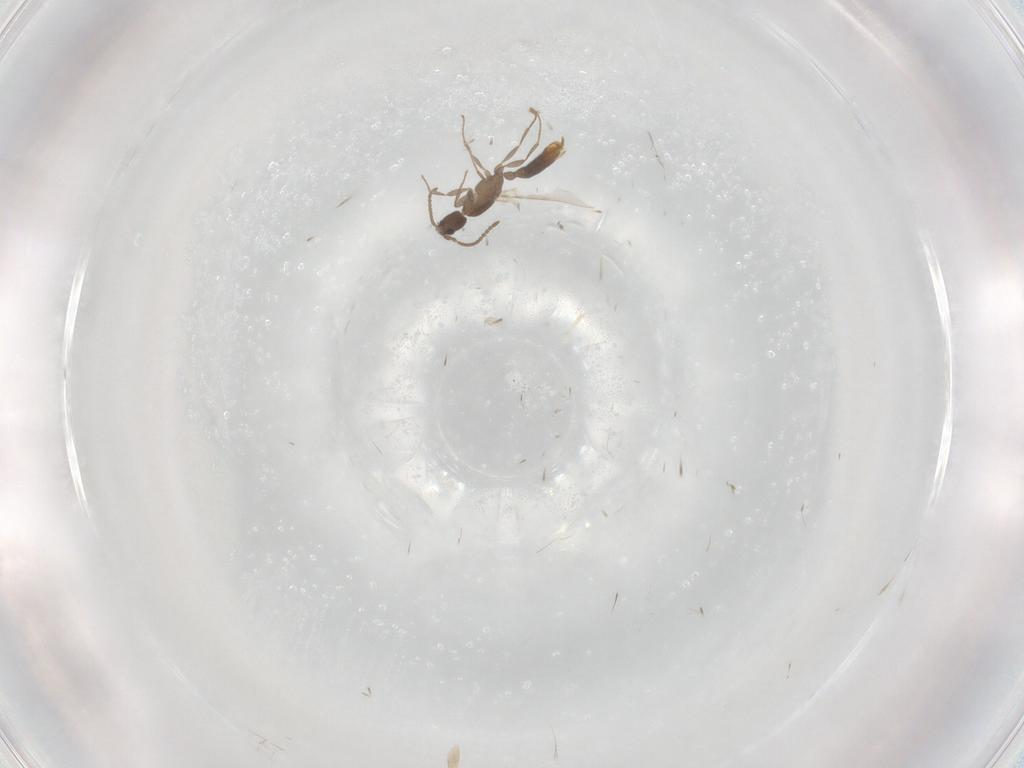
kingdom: Animalia
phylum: Arthropoda
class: Insecta
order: Hymenoptera
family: Formicidae
